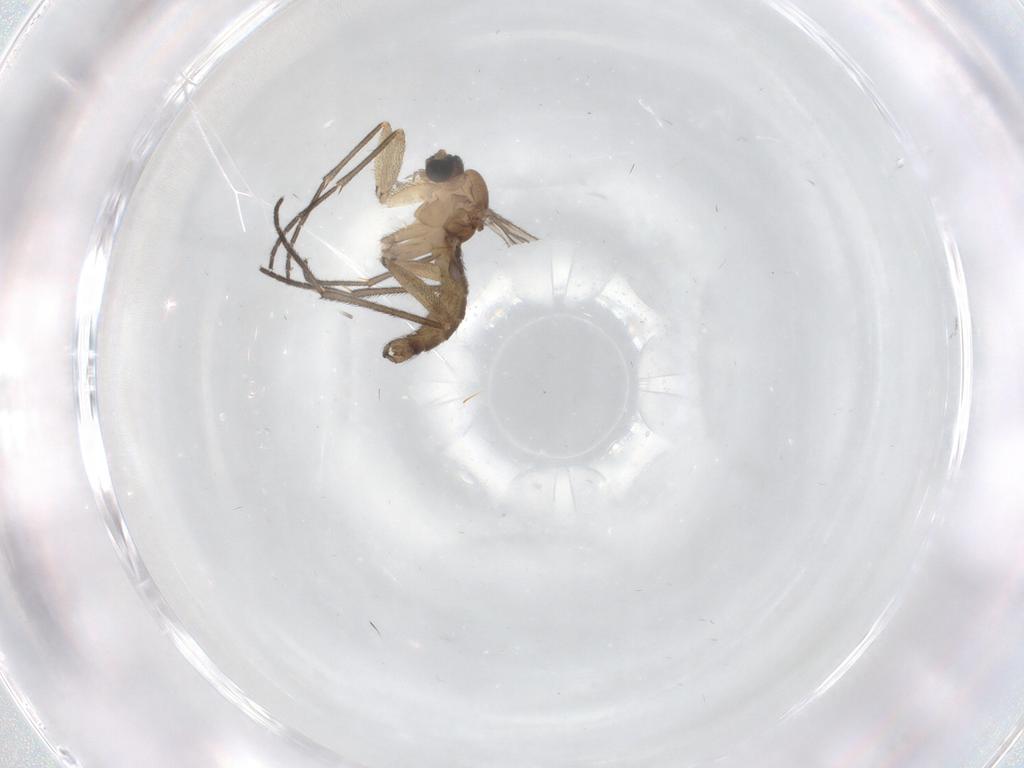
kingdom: Animalia
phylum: Arthropoda
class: Insecta
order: Diptera
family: Sciaridae
